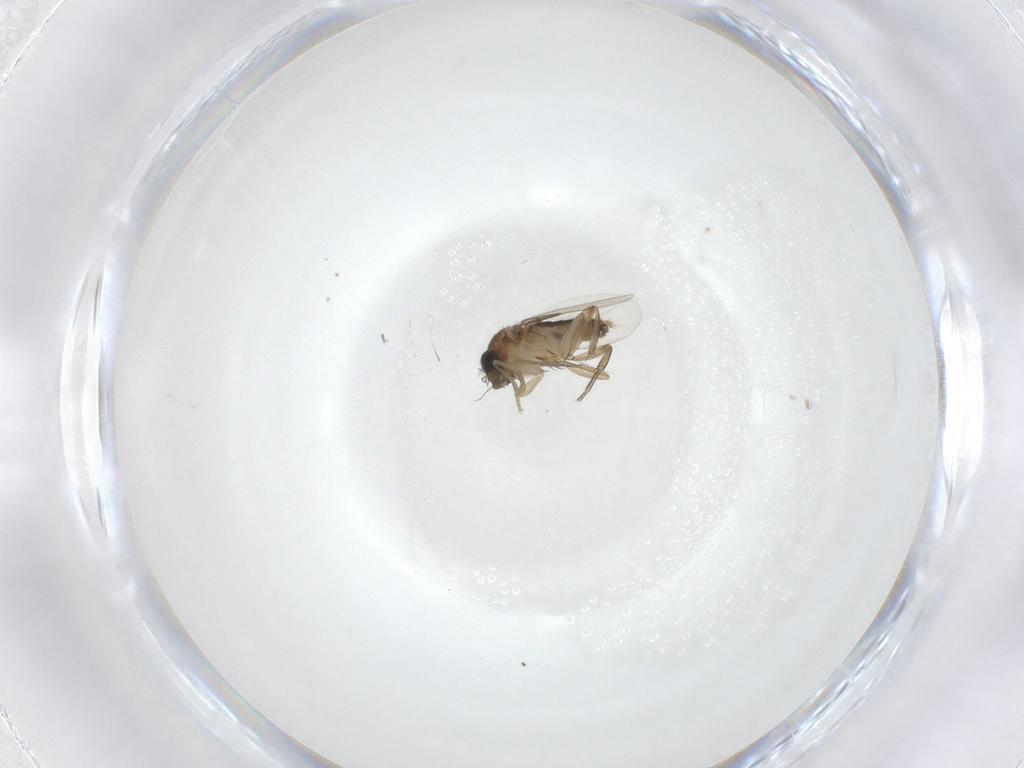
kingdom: Animalia
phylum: Arthropoda
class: Insecta
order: Diptera
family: Phoridae
